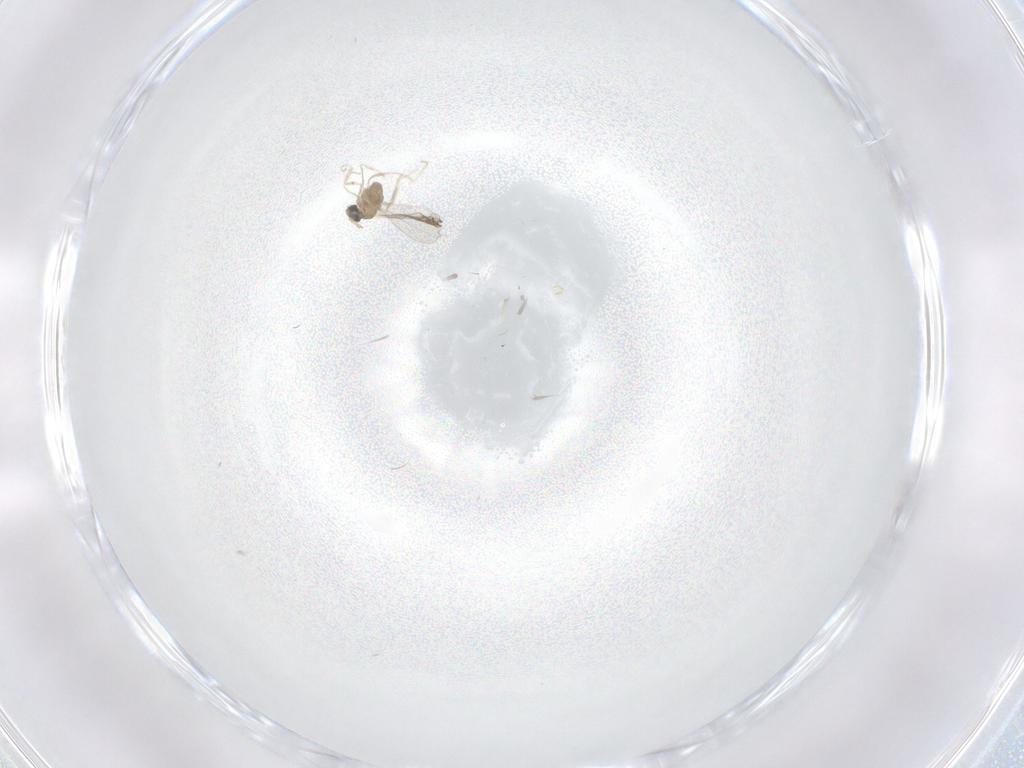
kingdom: Animalia
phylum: Arthropoda
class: Insecta
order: Diptera
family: Cecidomyiidae
